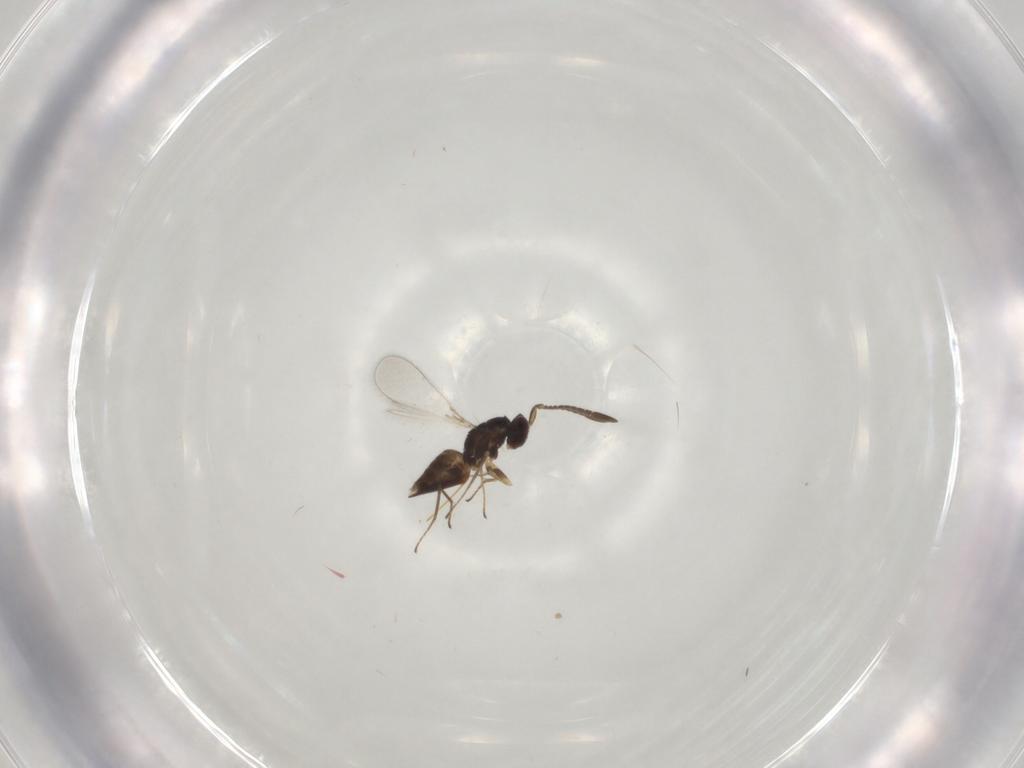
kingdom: Animalia
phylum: Arthropoda
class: Insecta
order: Hymenoptera
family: Mymaridae
